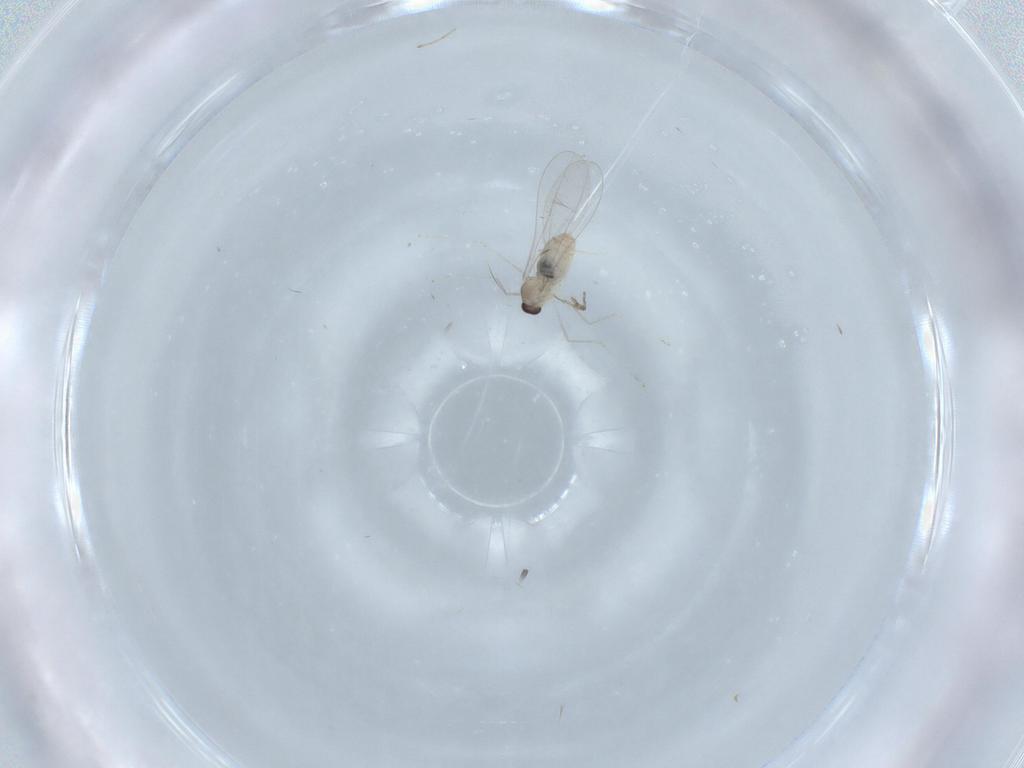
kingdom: Animalia
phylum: Arthropoda
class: Insecta
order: Diptera
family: Cecidomyiidae
